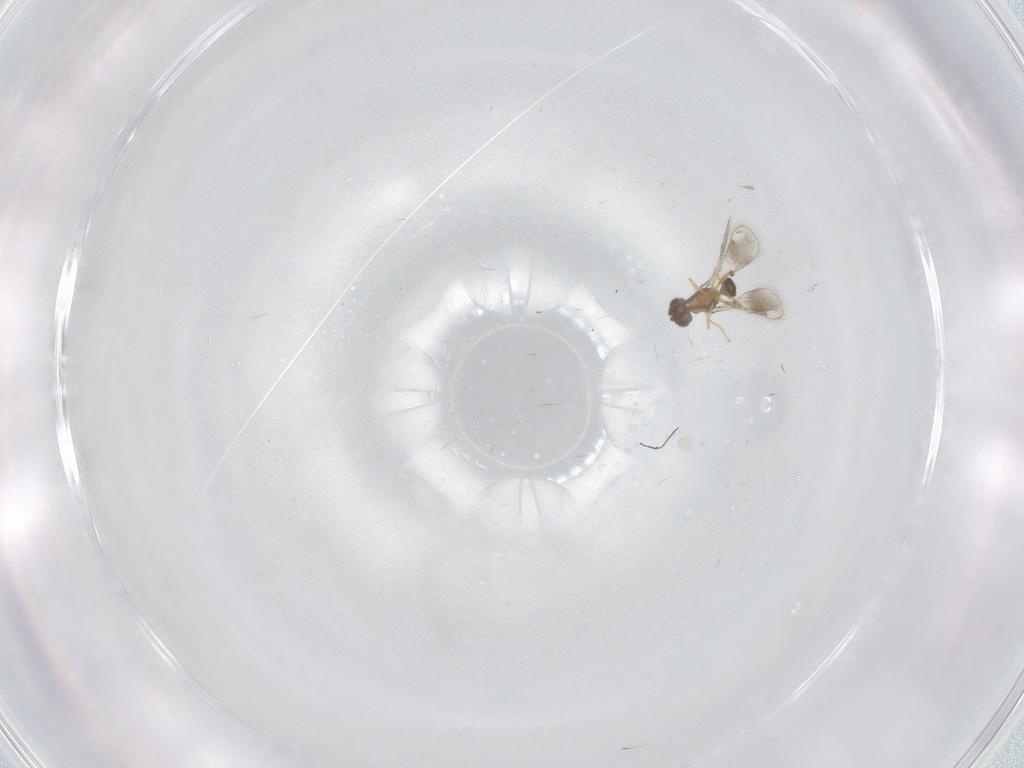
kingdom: Animalia
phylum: Arthropoda
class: Insecta
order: Hymenoptera
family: Pteromalidae
